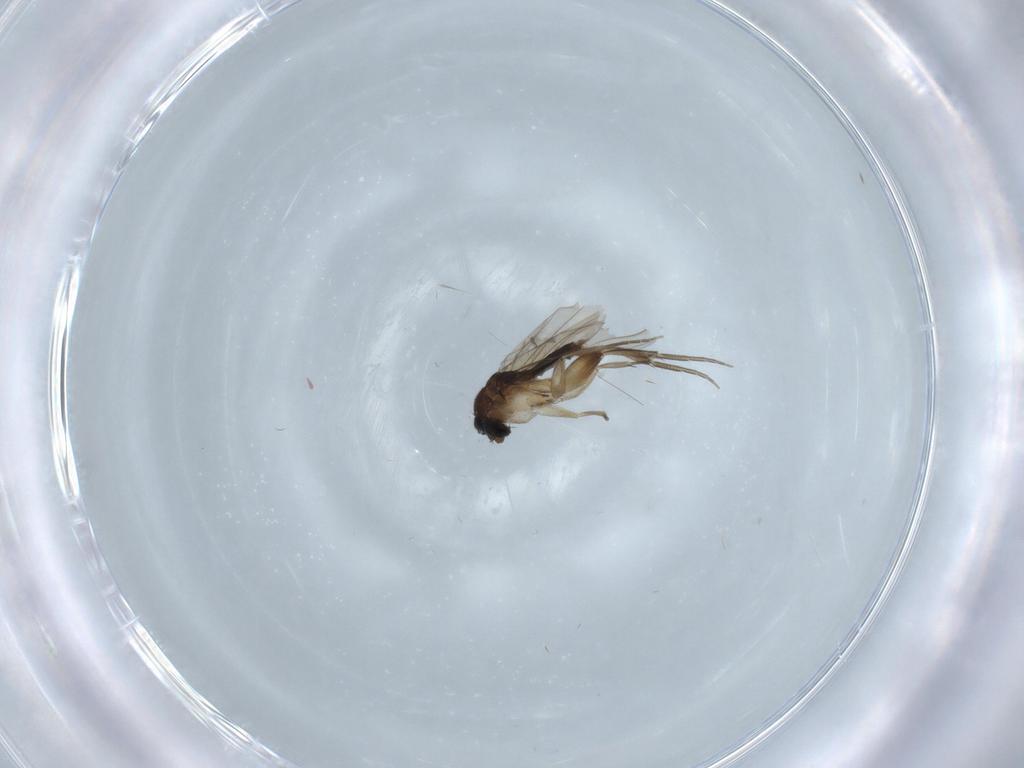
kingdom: Animalia
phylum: Arthropoda
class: Insecta
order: Diptera
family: Phoridae
